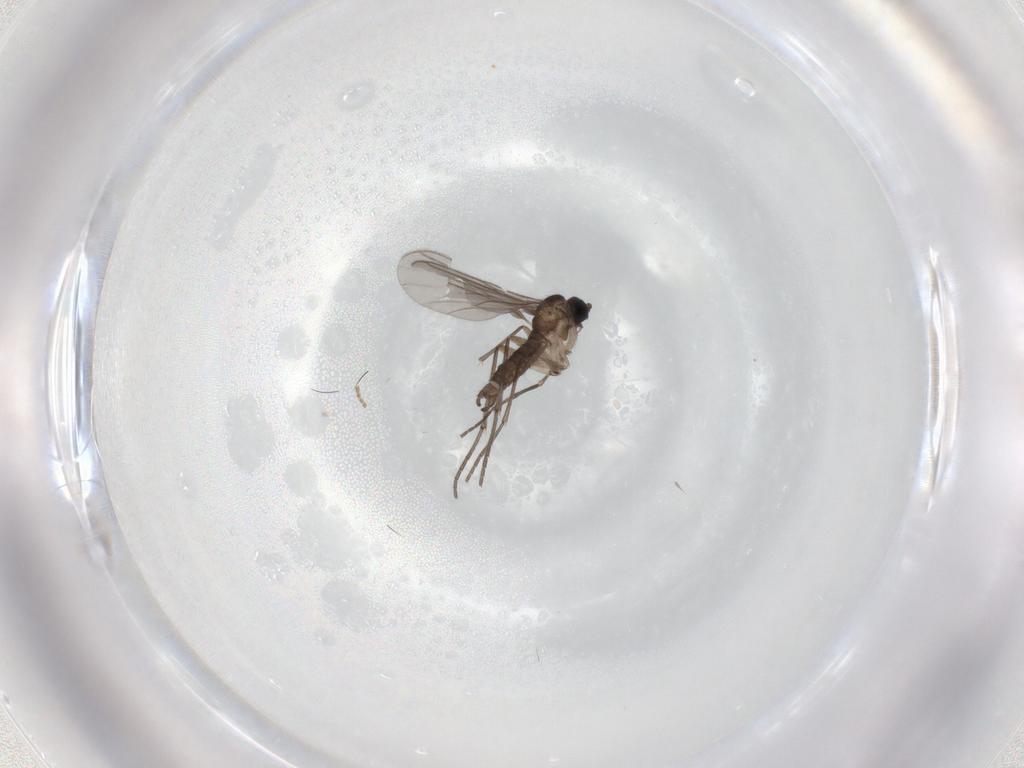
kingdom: Animalia
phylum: Arthropoda
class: Insecta
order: Diptera
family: Sciaridae
